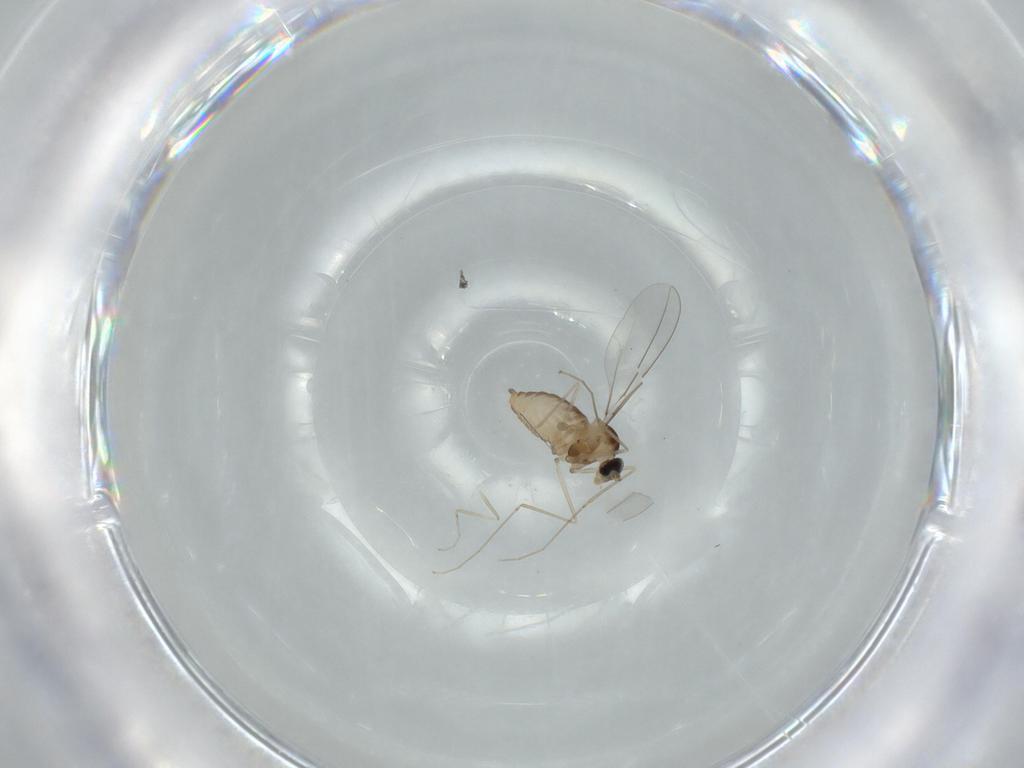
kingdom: Animalia
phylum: Arthropoda
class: Insecta
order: Diptera
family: Cecidomyiidae
